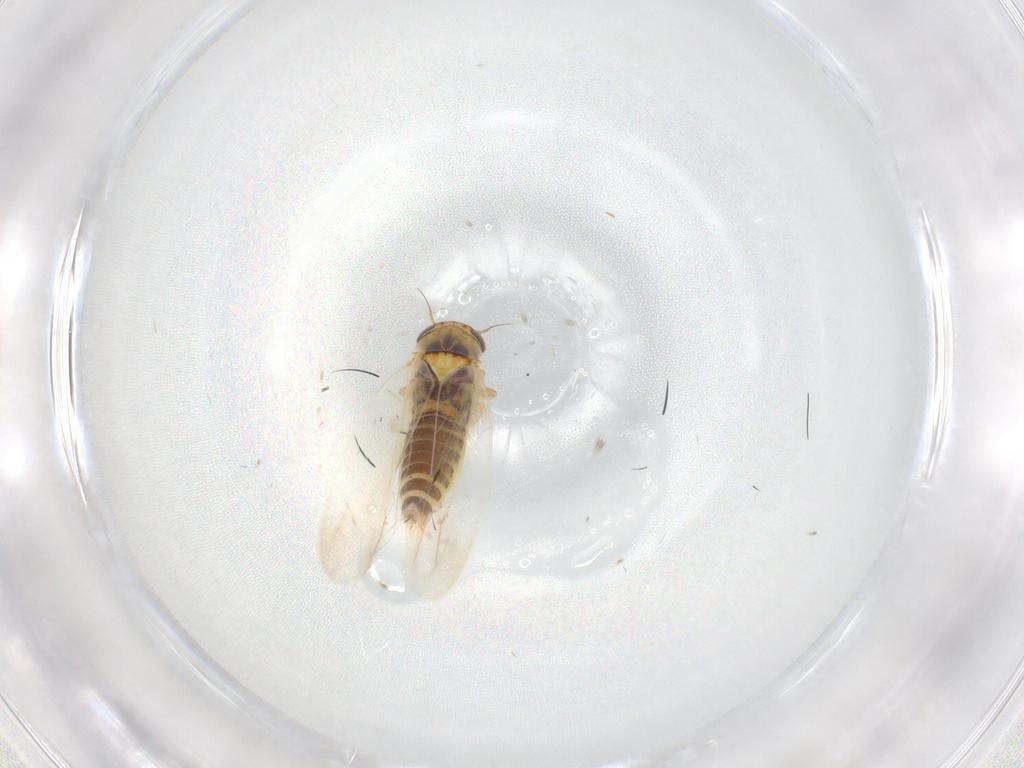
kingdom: Animalia
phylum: Arthropoda
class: Insecta
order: Hemiptera
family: Cicadellidae
